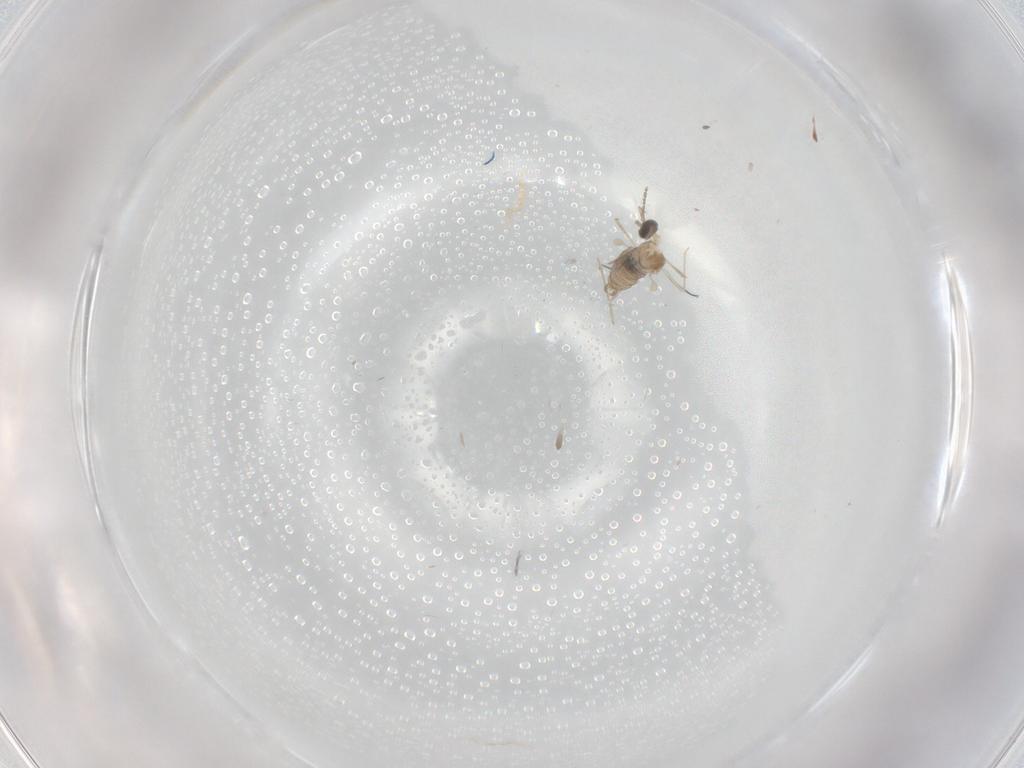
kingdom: Animalia
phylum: Arthropoda
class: Insecta
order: Diptera
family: Cecidomyiidae
